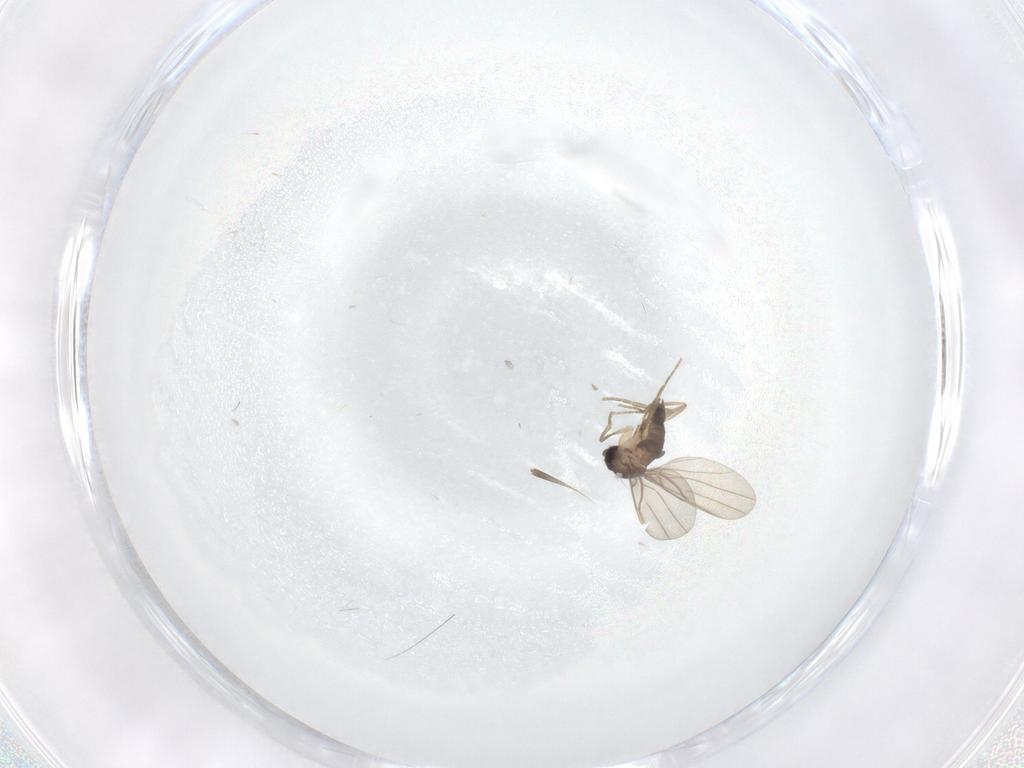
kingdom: Animalia
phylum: Arthropoda
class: Insecta
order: Diptera
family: Phoridae
